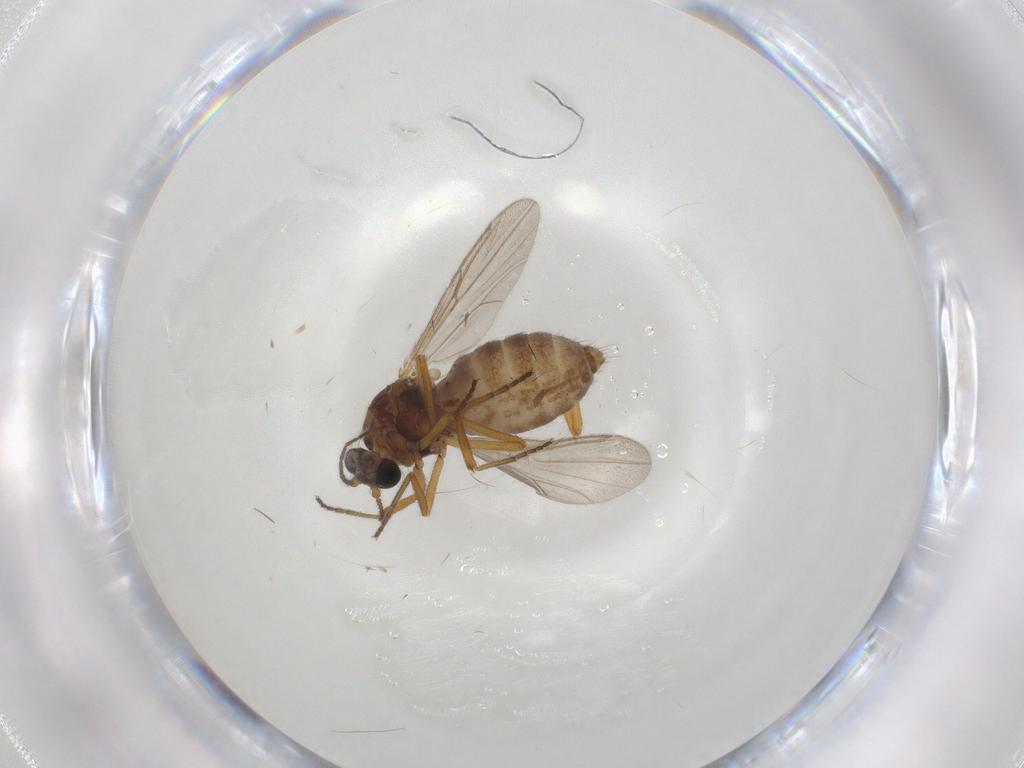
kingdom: Animalia
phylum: Arthropoda
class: Insecta
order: Diptera
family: Ceratopogonidae
